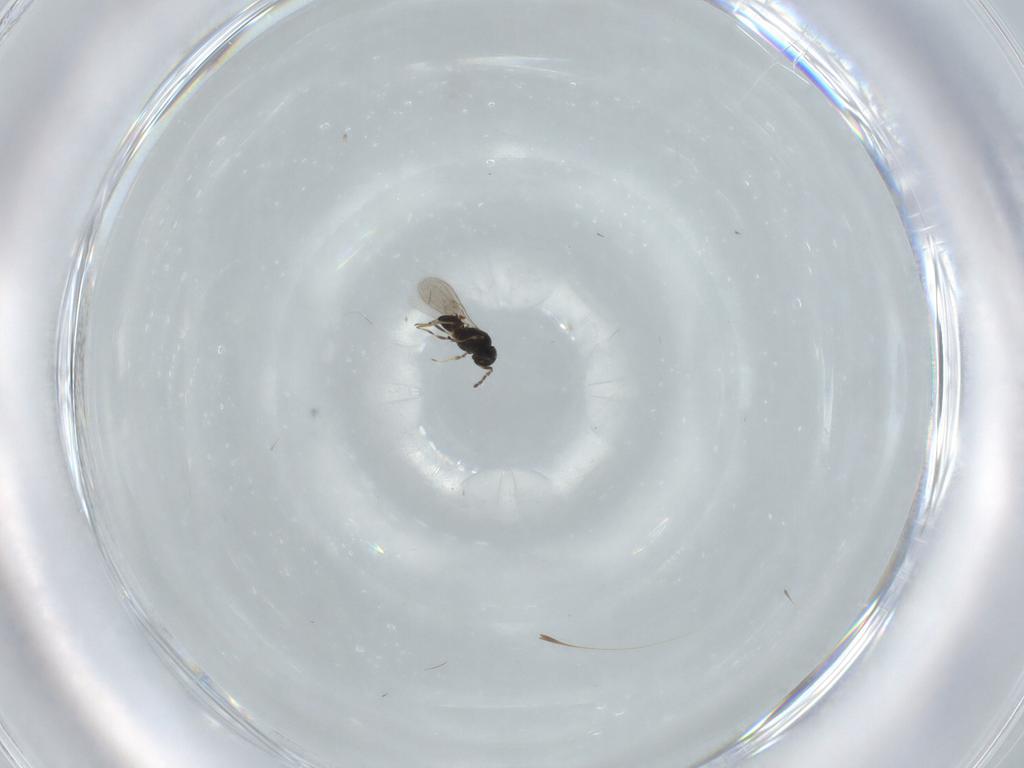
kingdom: Animalia
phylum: Arthropoda
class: Insecta
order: Hymenoptera
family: Scelionidae
